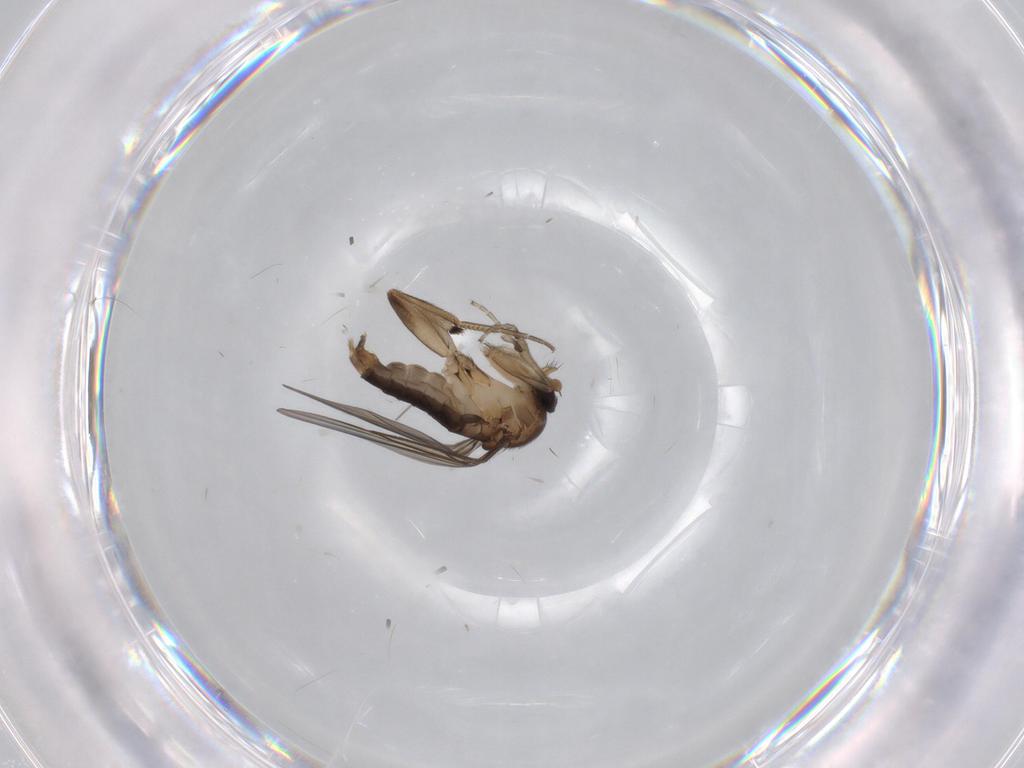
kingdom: Animalia
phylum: Arthropoda
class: Insecta
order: Diptera
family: Phoridae
